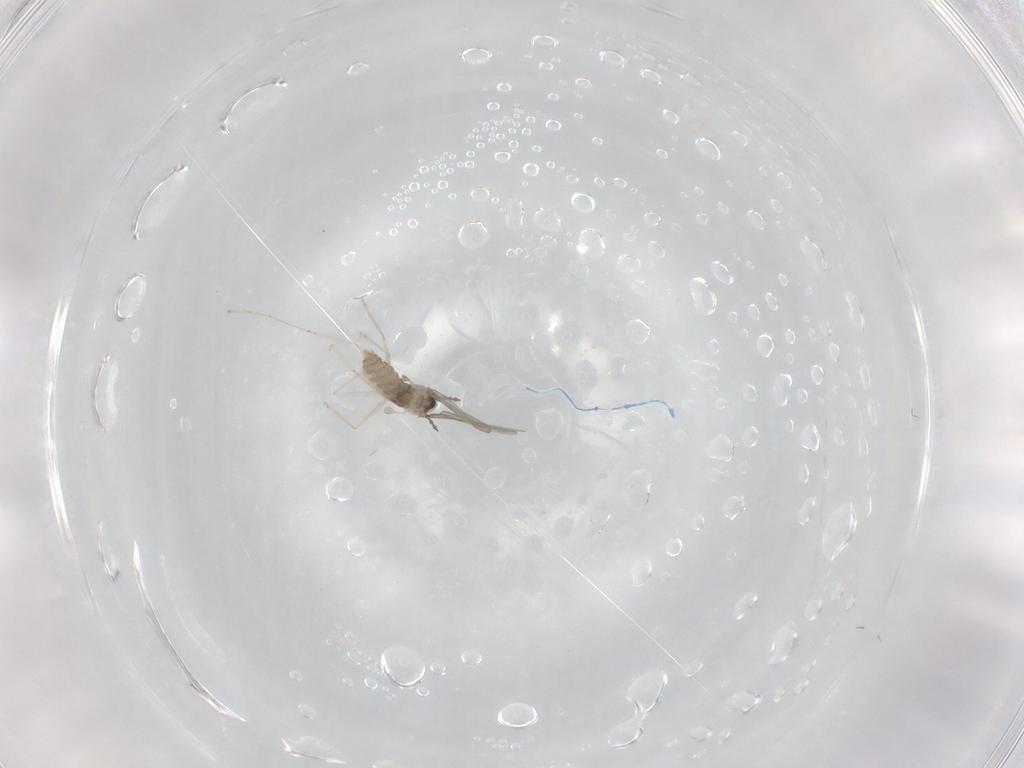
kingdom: Animalia
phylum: Arthropoda
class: Insecta
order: Diptera
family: Cecidomyiidae
